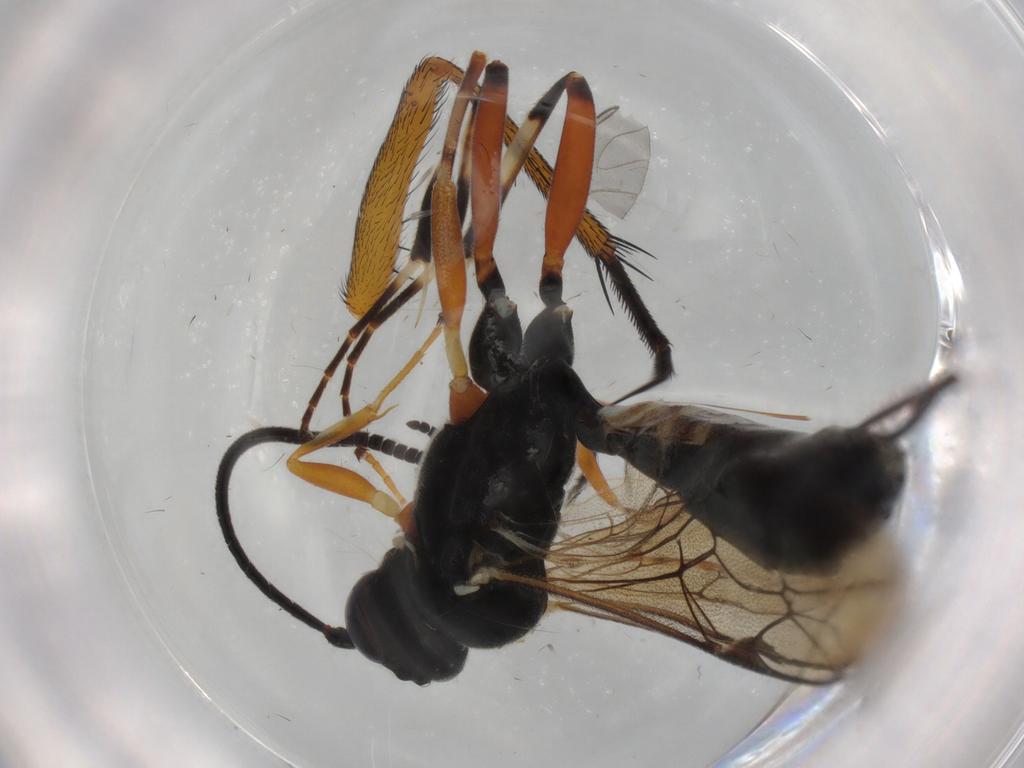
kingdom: Animalia
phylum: Arthropoda
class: Insecta
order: Hymenoptera
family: Ichneumonidae
